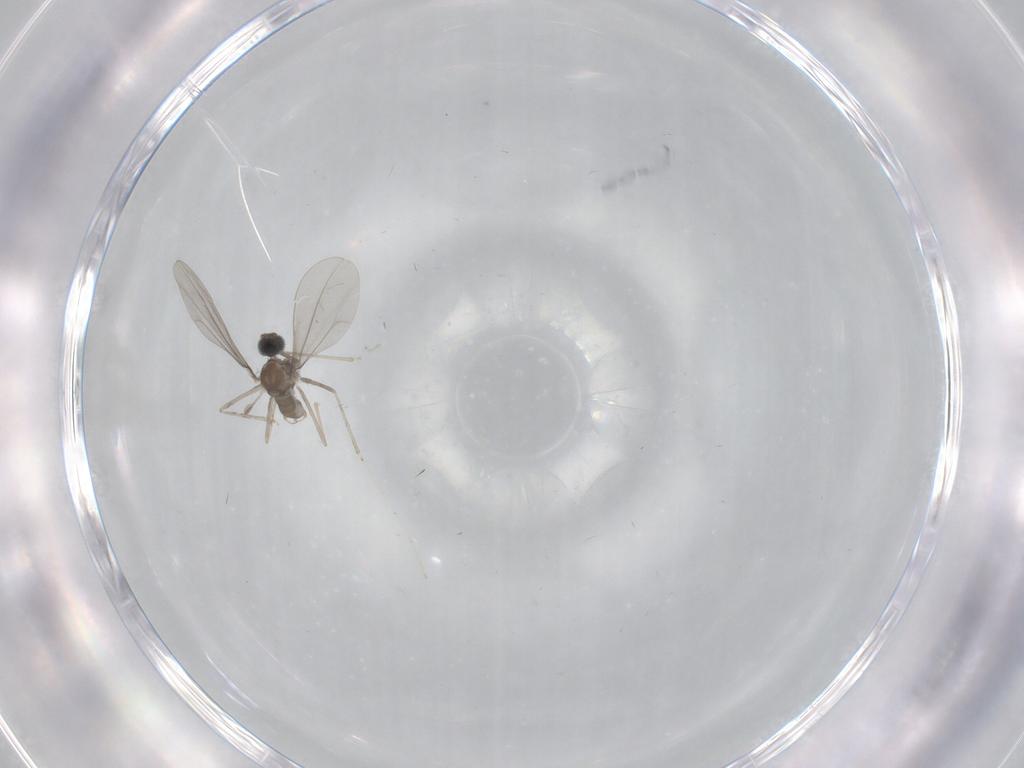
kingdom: Animalia
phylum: Arthropoda
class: Insecta
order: Diptera
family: Cecidomyiidae
